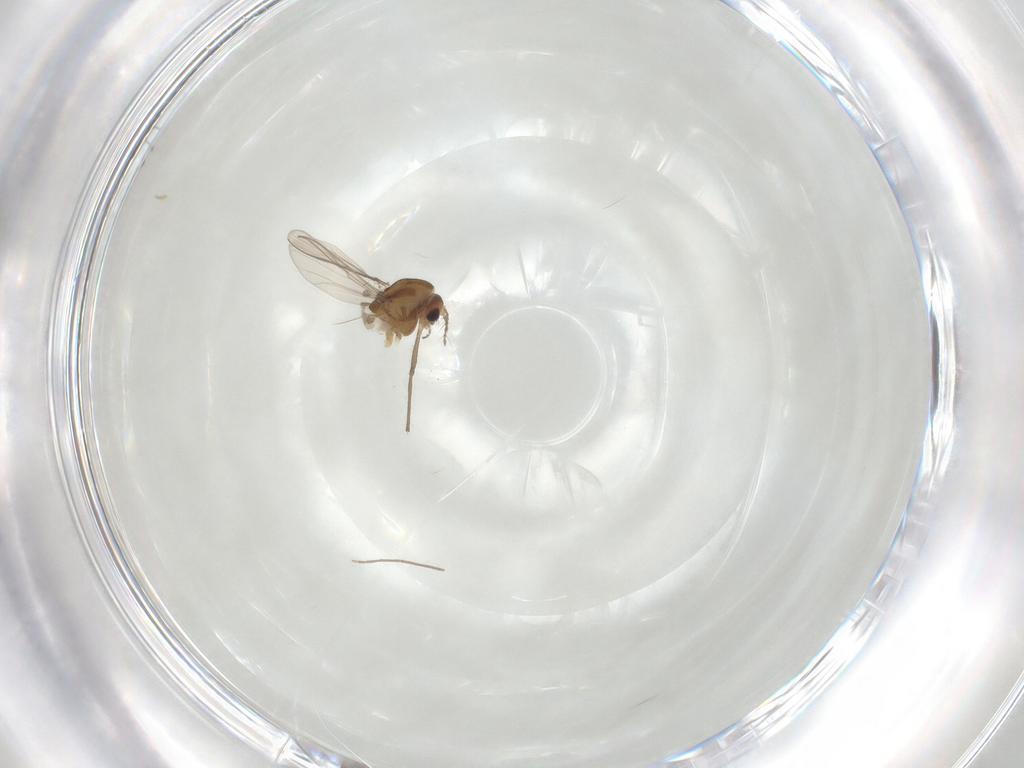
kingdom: Animalia
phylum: Arthropoda
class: Insecta
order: Diptera
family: Chironomidae
